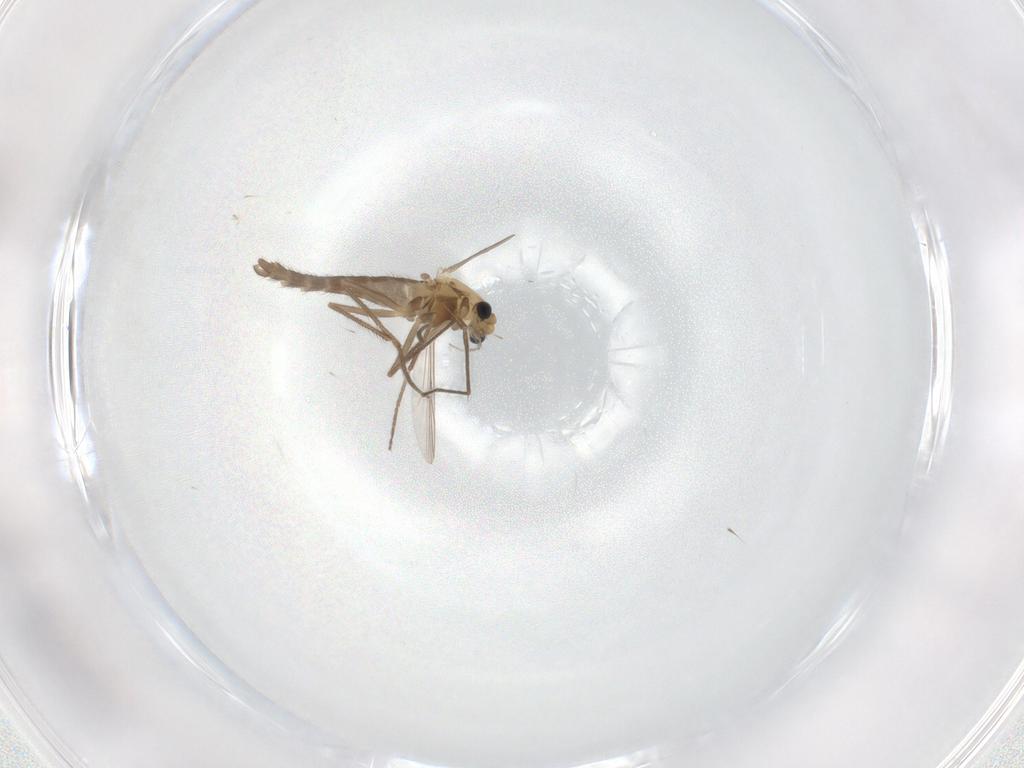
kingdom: Animalia
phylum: Arthropoda
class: Insecta
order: Diptera
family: Chironomidae
